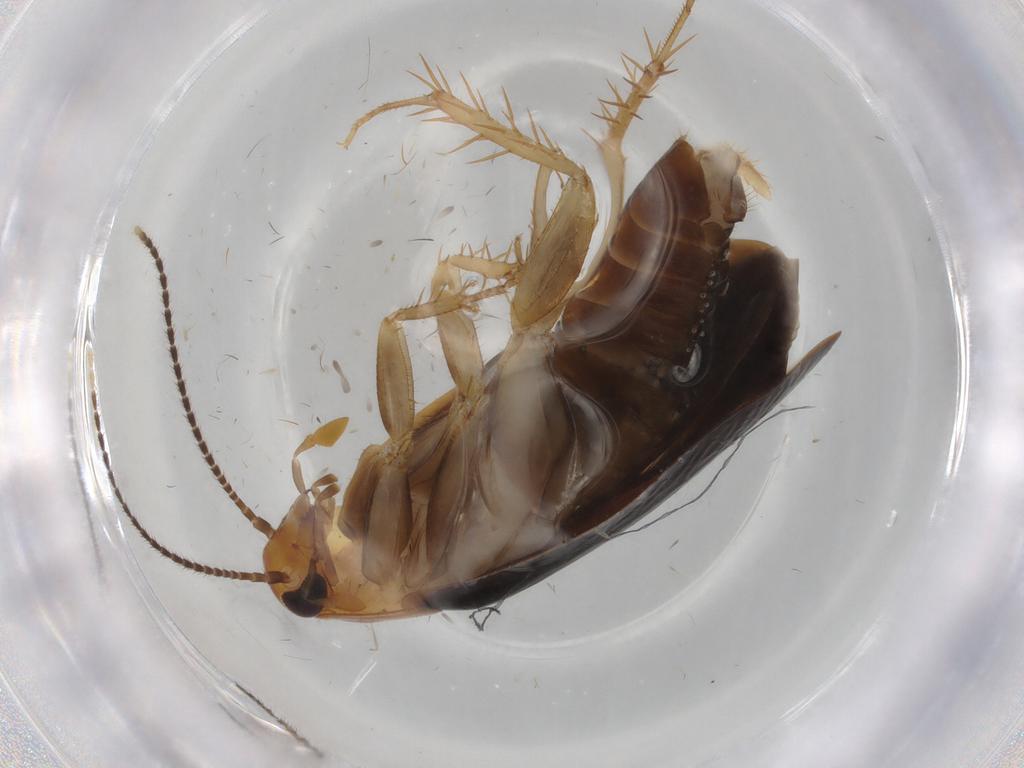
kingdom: Animalia
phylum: Arthropoda
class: Insecta
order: Blattodea
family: Tryonicidae
